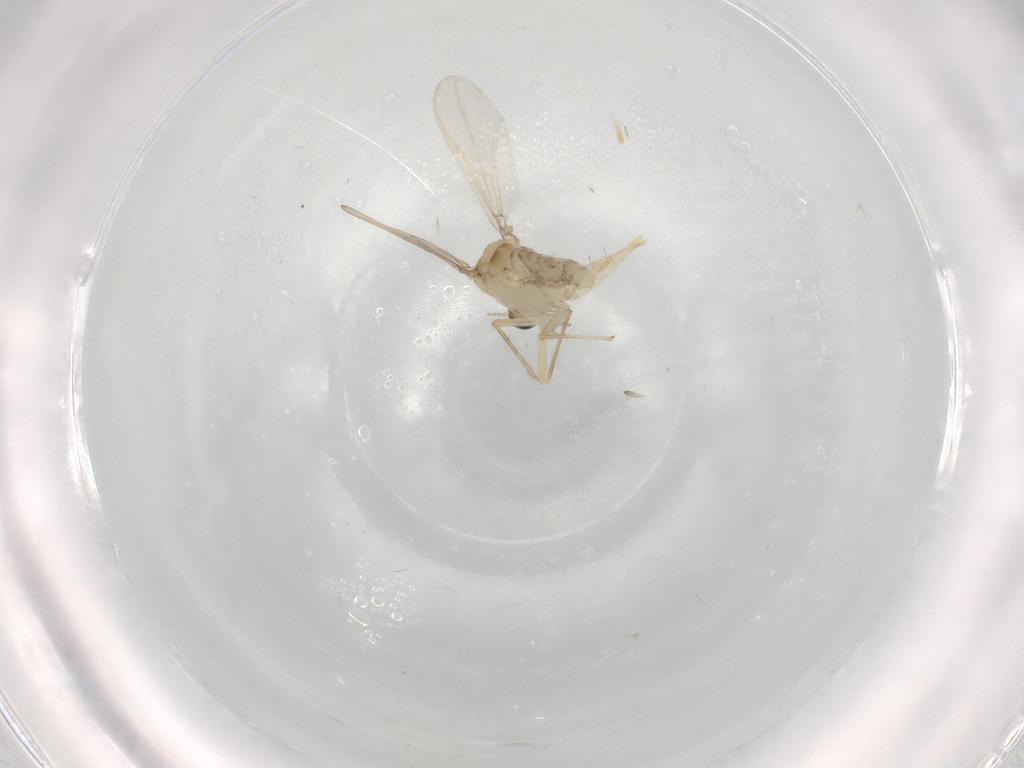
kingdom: Animalia
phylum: Arthropoda
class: Insecta
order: Diptera
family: Chironomidae
